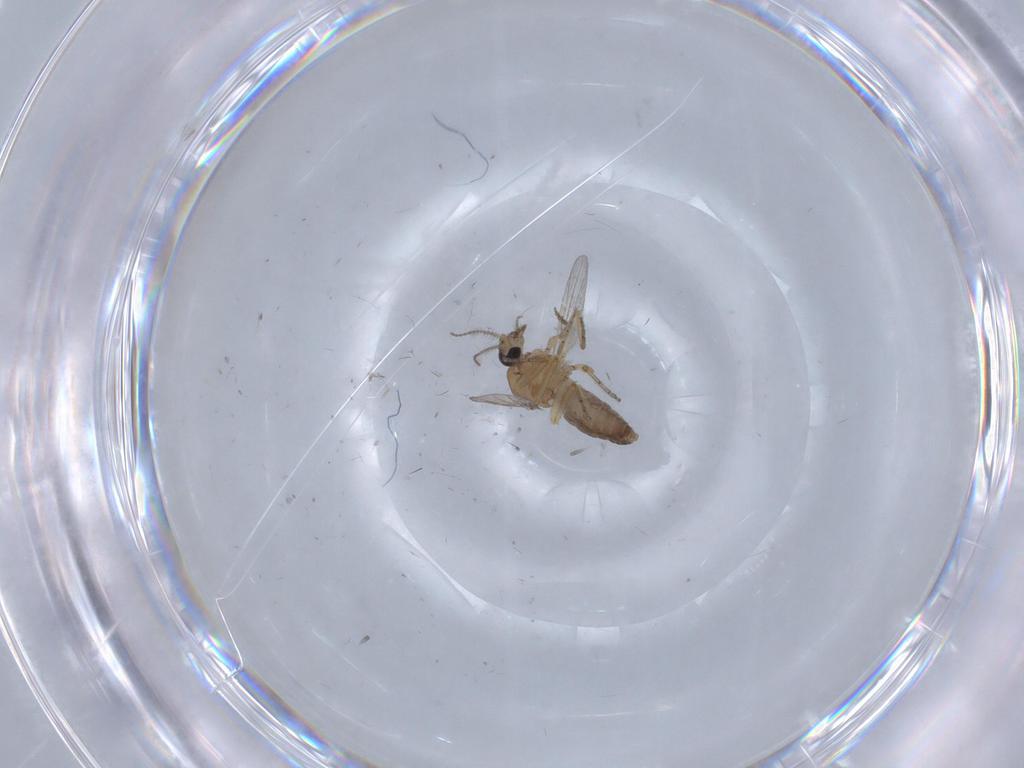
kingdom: Animalia
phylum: Arthropoda
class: Insecta
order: Diptera
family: Ceratopogonidae
